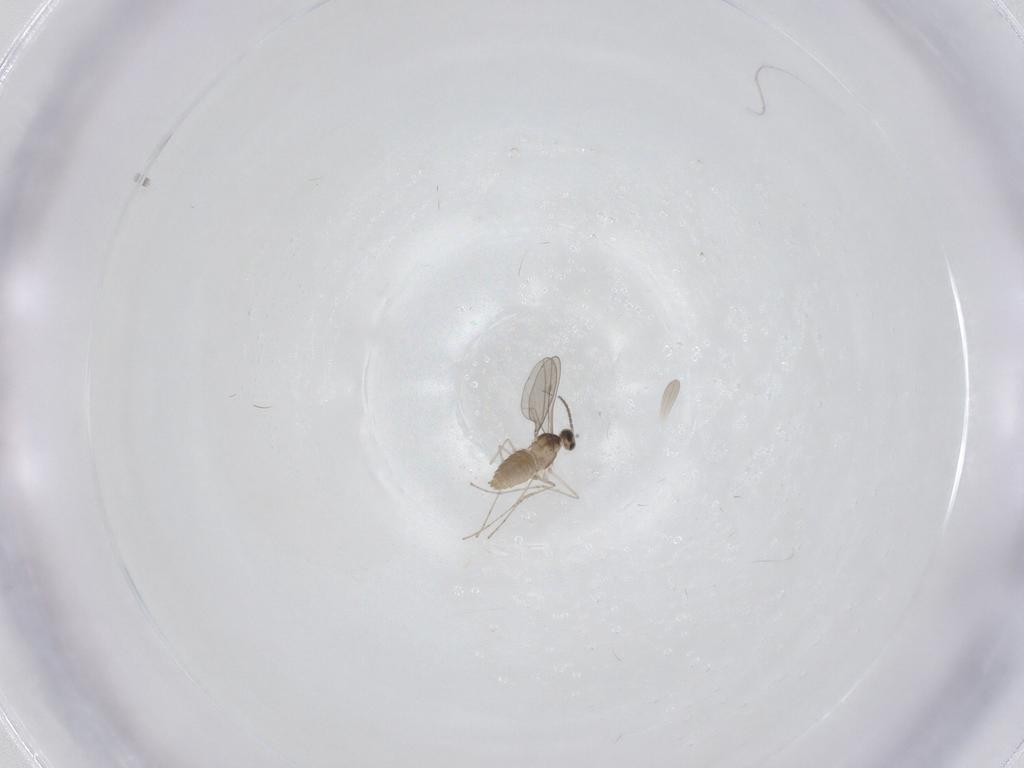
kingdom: Animalia
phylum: Arthropoda
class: Insecta
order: Diptera
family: Cecidomyiidae
